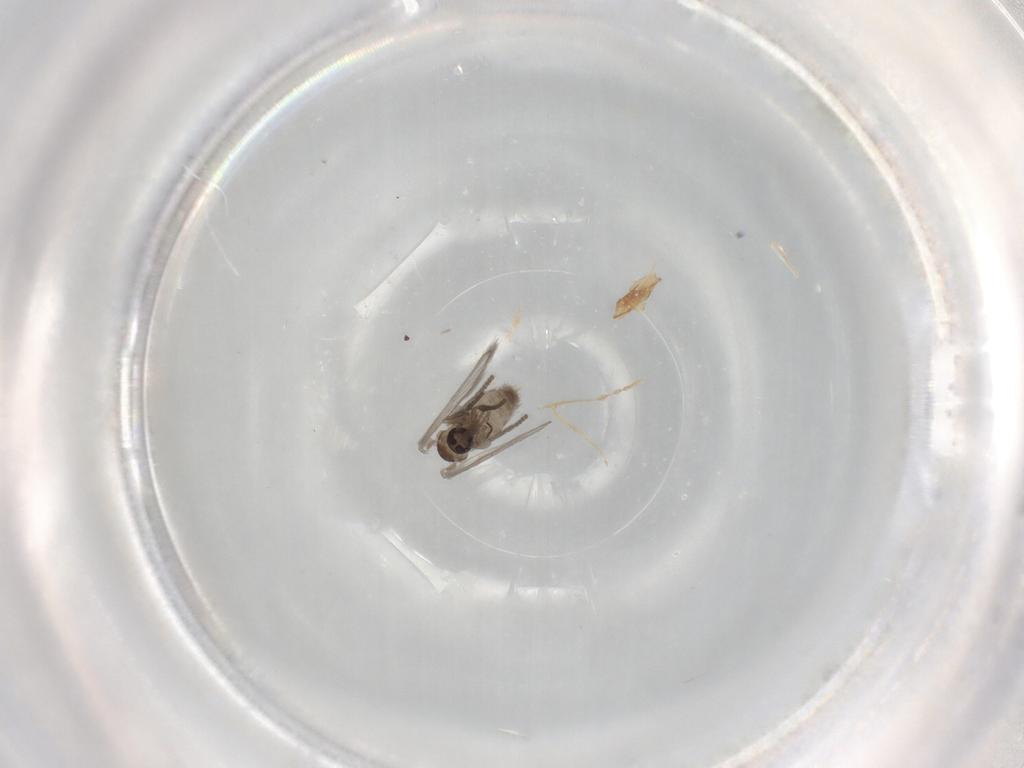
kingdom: Animalia
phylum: Arthropoda
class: Insecta
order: Diptera
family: Psychodidae
